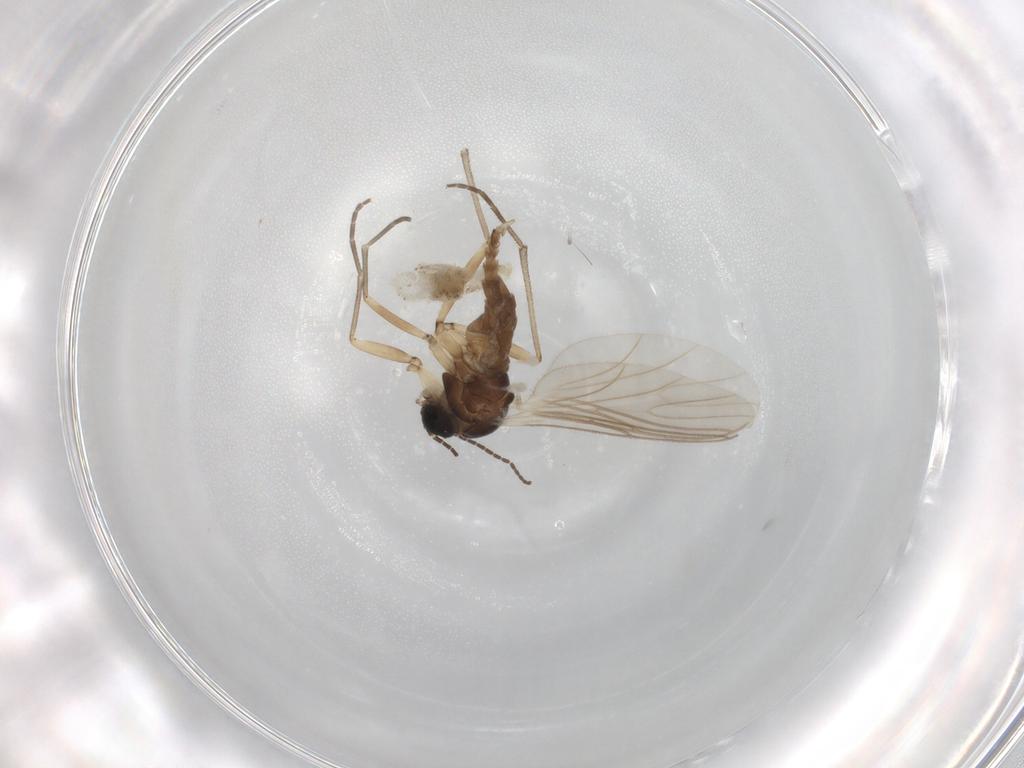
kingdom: Animalia
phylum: Arthropoda
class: Insecta
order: Diptera
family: Sciaridae
